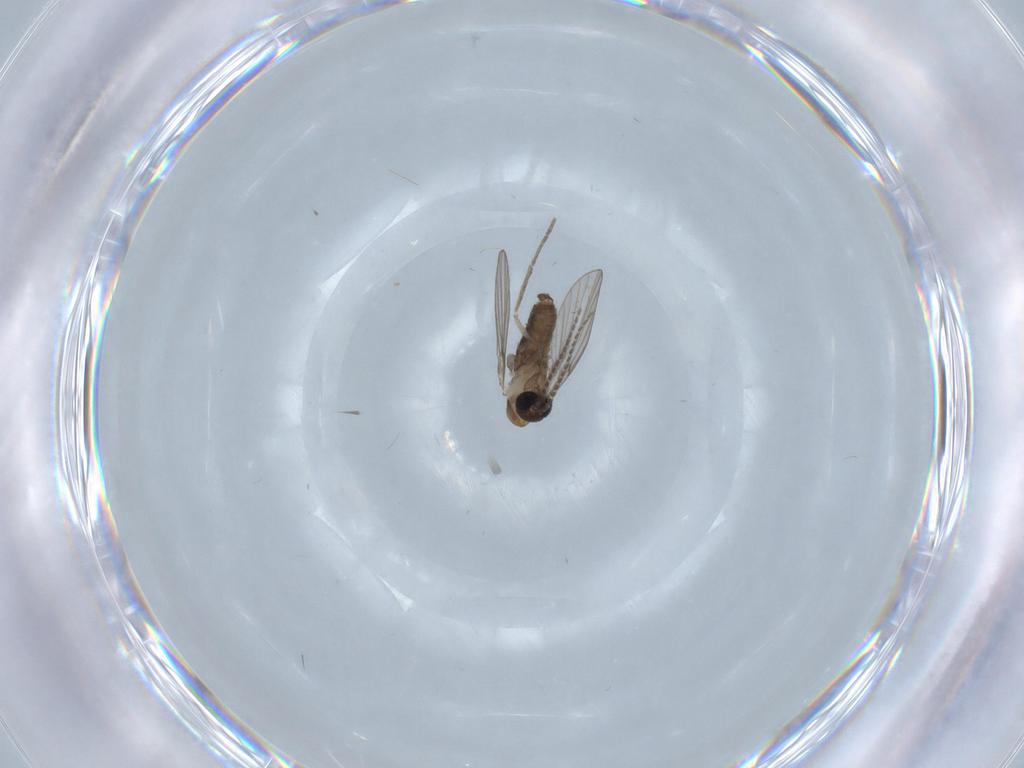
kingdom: Animalia
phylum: Arthropoda
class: Insecta
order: Diptera
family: Psychodidae
